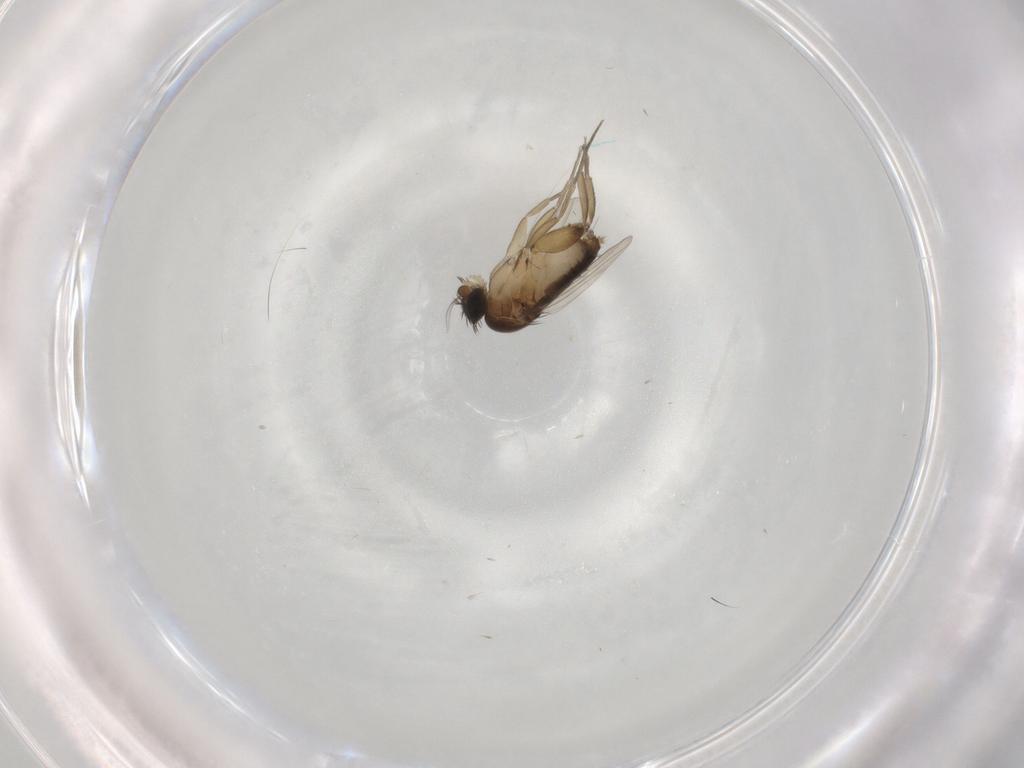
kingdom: Animalia
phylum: Arthropoda
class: Insecta
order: Diptera
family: Phoridae
